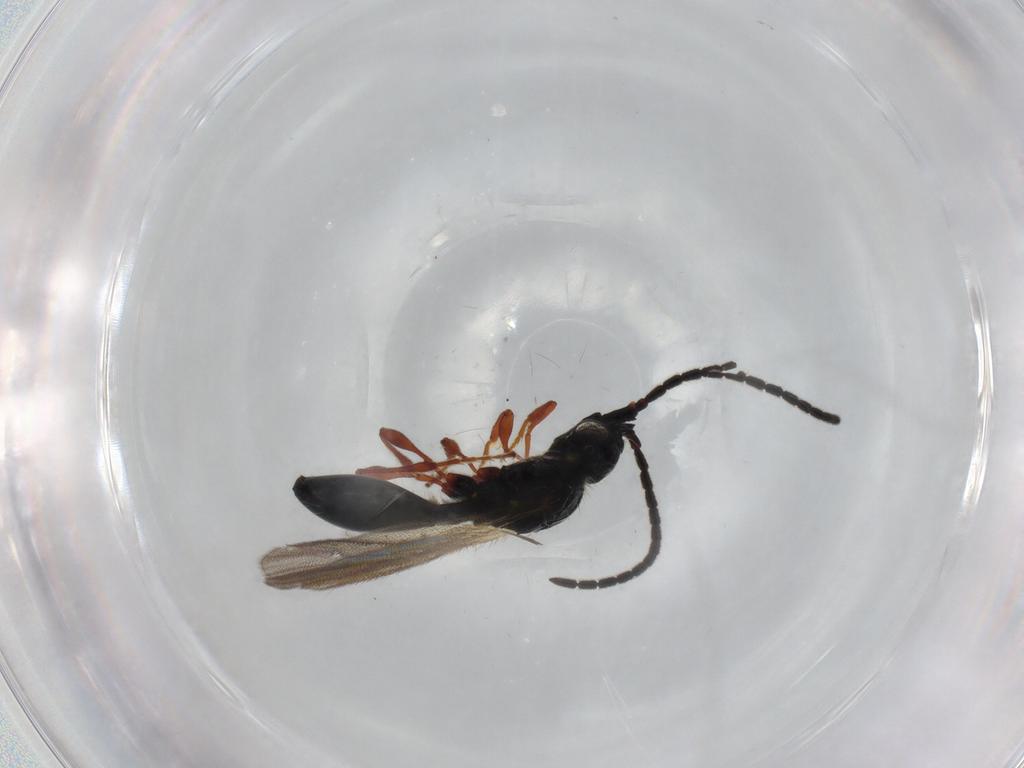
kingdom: Animalia
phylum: Arthropoda
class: Insecta
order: Hymenoptera
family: Diapriidae
